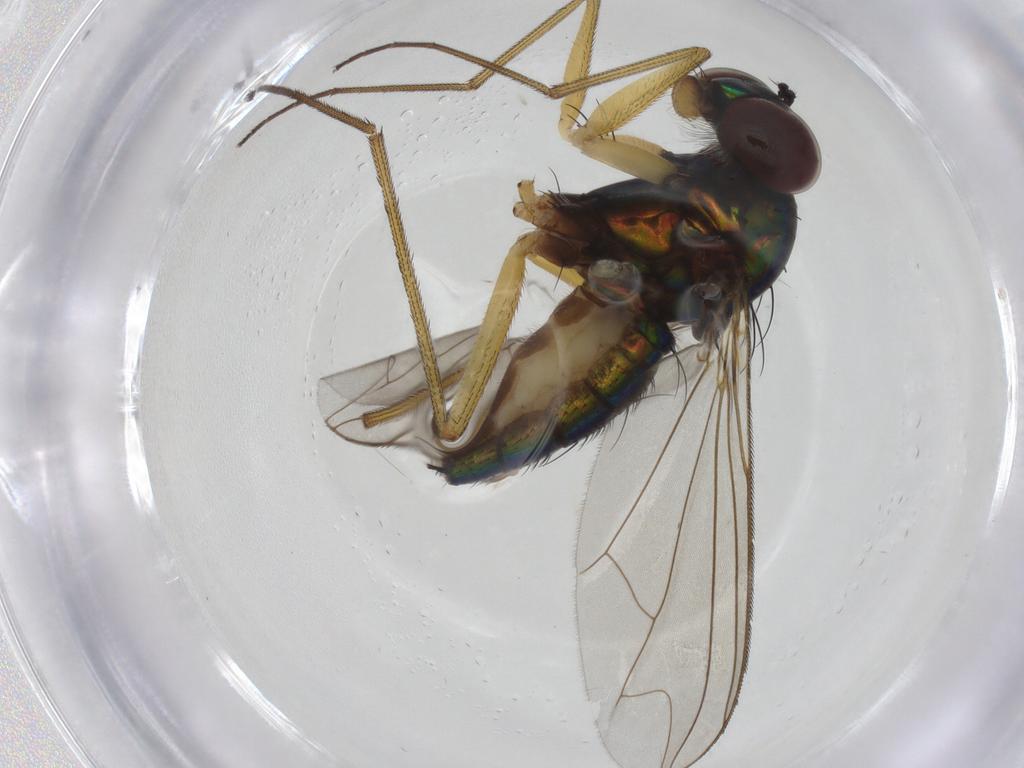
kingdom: Animalia
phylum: Arthropoda
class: Insecta
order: Diptera
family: Dolichopodidae
